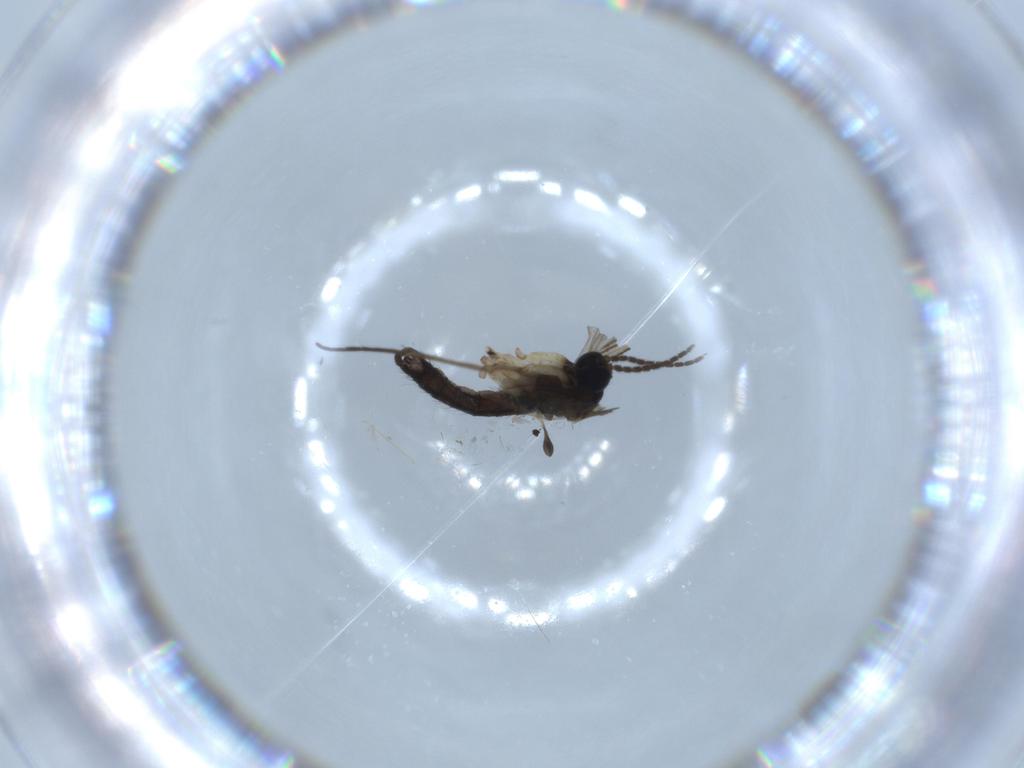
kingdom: Animalia
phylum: Arthropoda
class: Insecta
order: Diptera
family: Sciaridae
